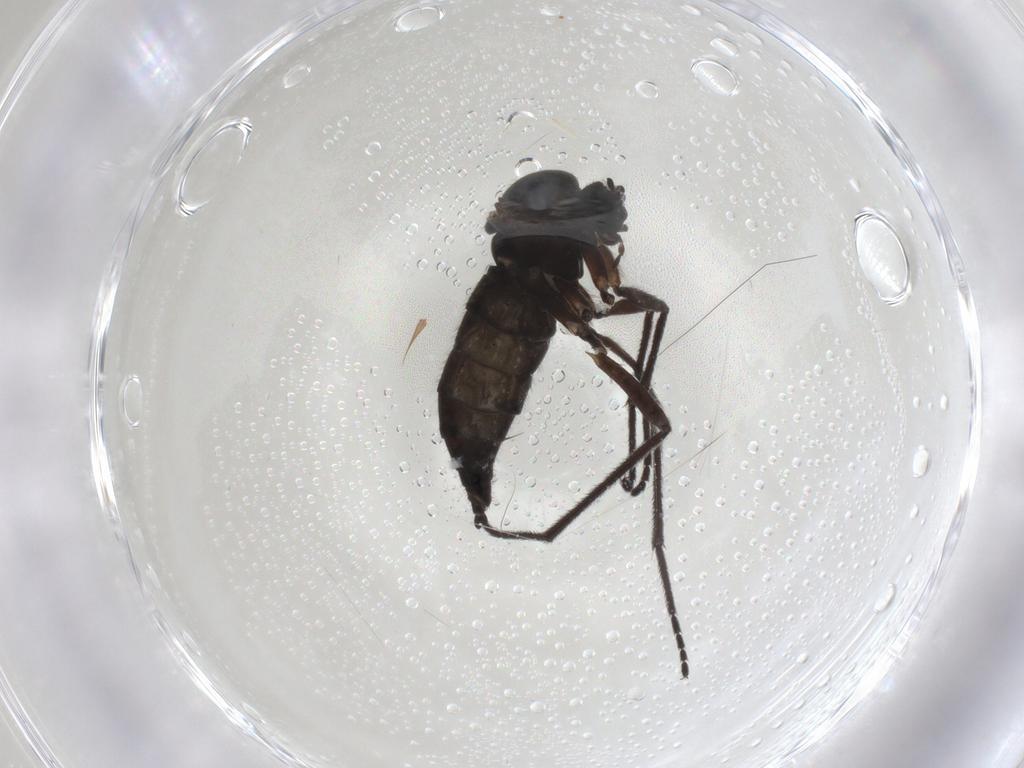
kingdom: Animalia
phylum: Arthropoda
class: Insecta
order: Diptera
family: Sciaridae
